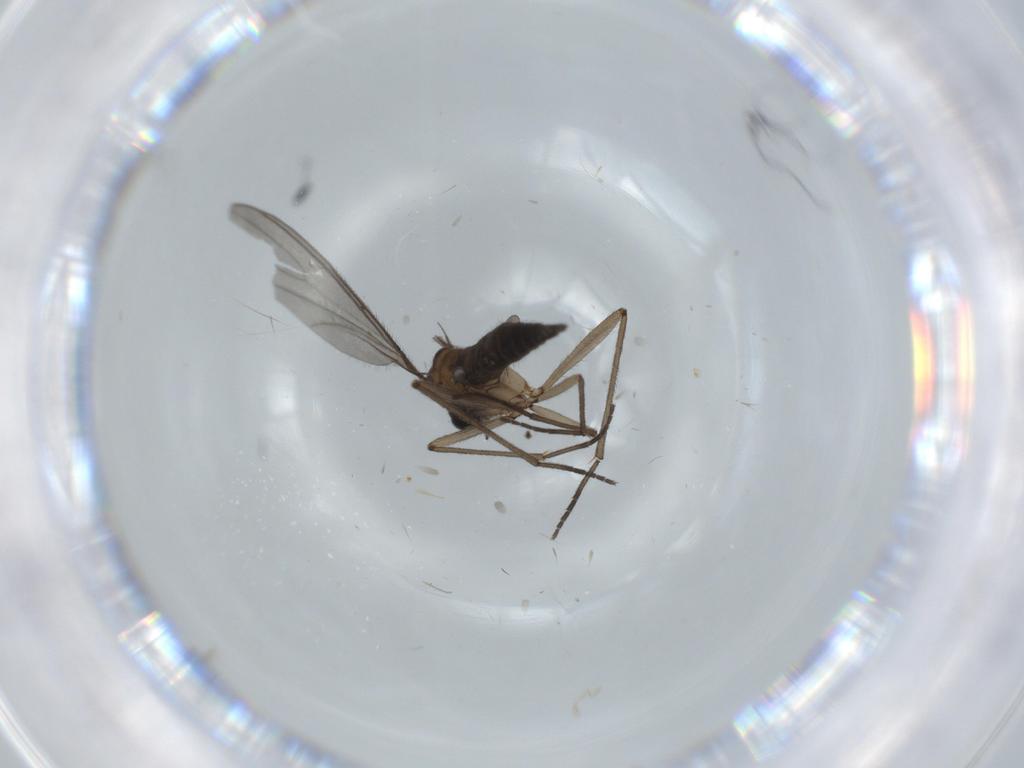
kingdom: Animalia
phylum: Arthropoda
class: Insecta
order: Diptera
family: Sciaridae
